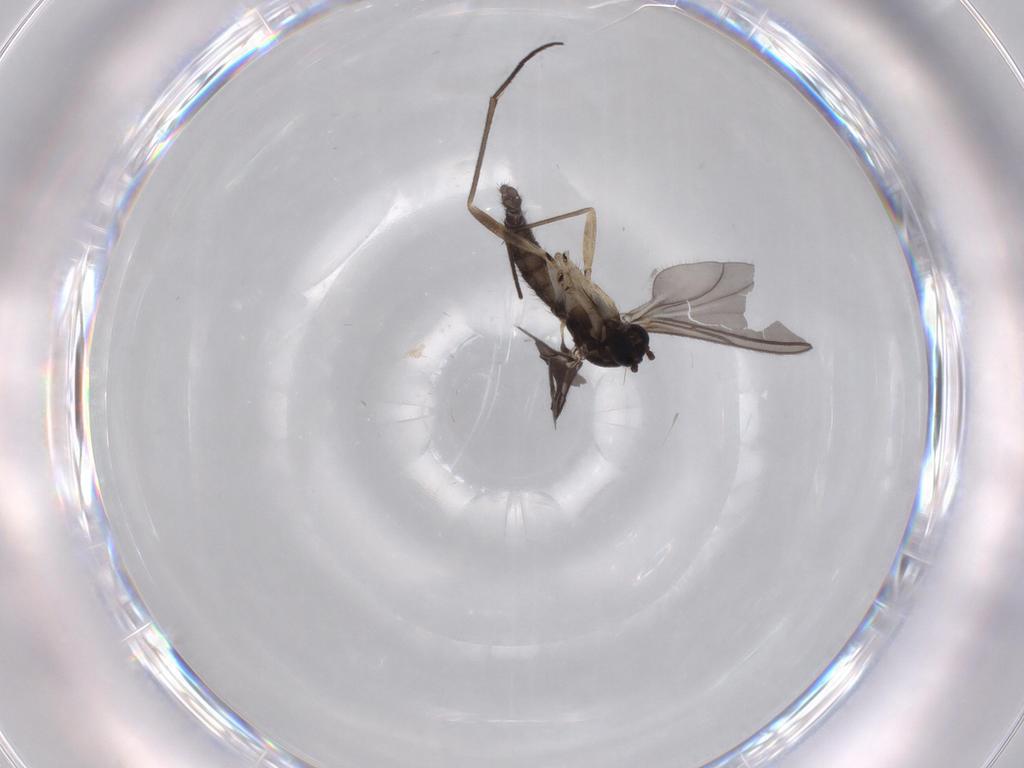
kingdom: Animalia
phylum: Arthropoda
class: Insecta
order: Diptera
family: Sciaridae
